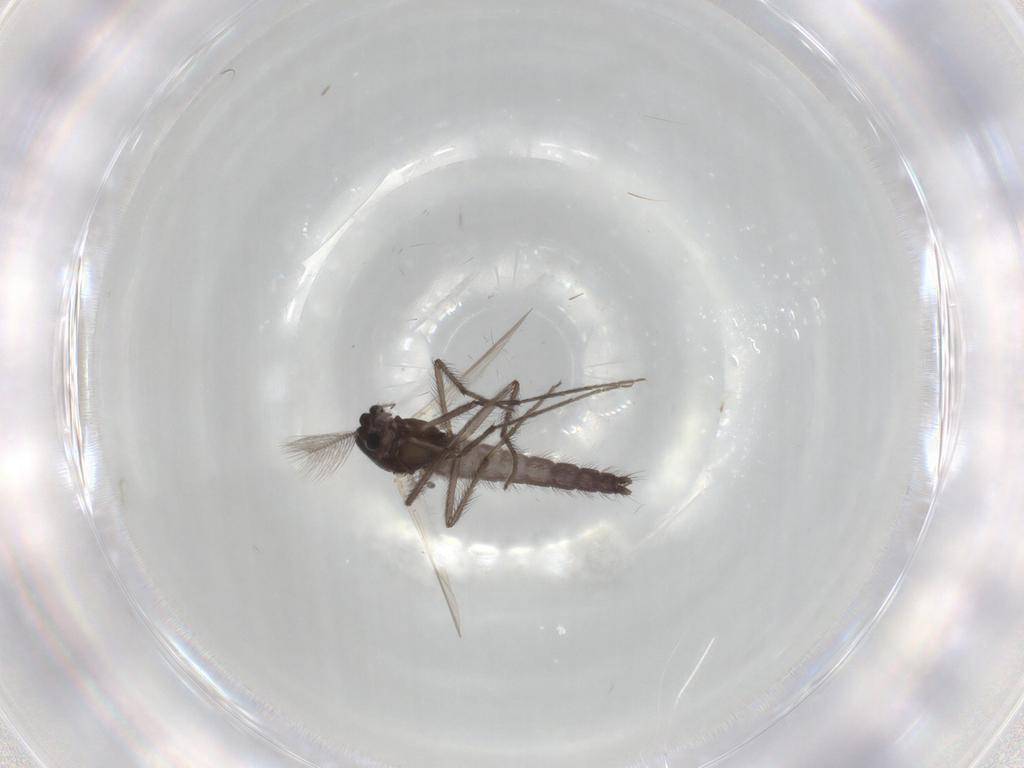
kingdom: Animalia
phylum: Arthropoda
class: Insecta
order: Diptera
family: Chironomidae
